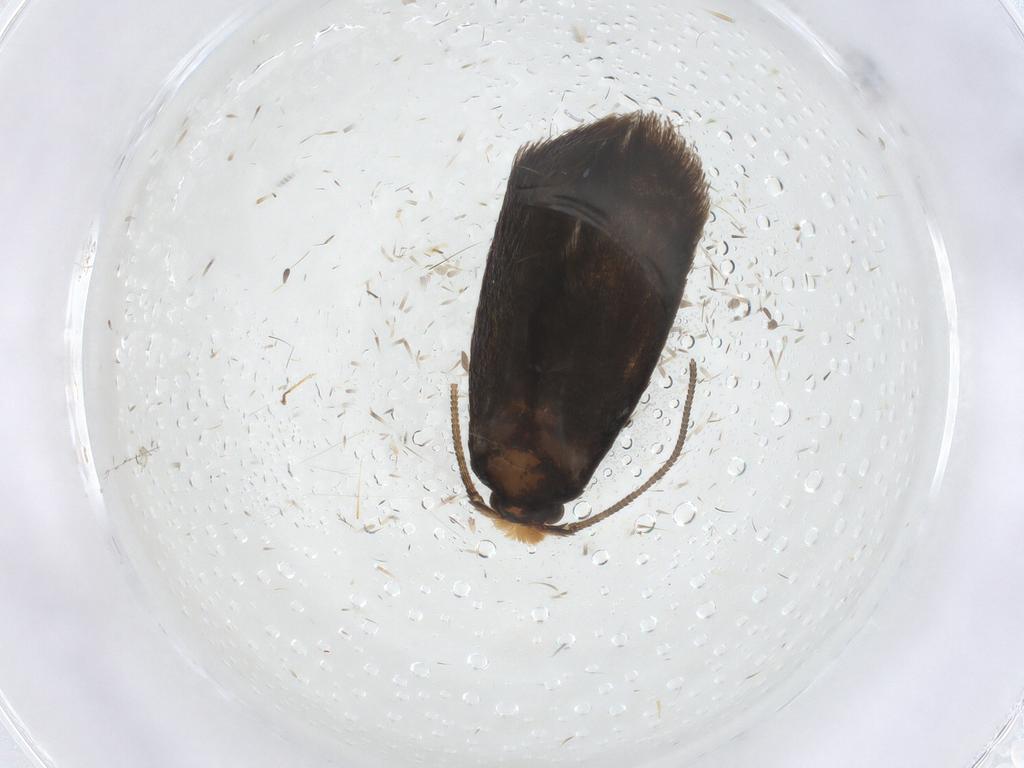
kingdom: Animalia
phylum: Arthropoda
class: Insecta
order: Lepidoptera
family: Nepticulidae
